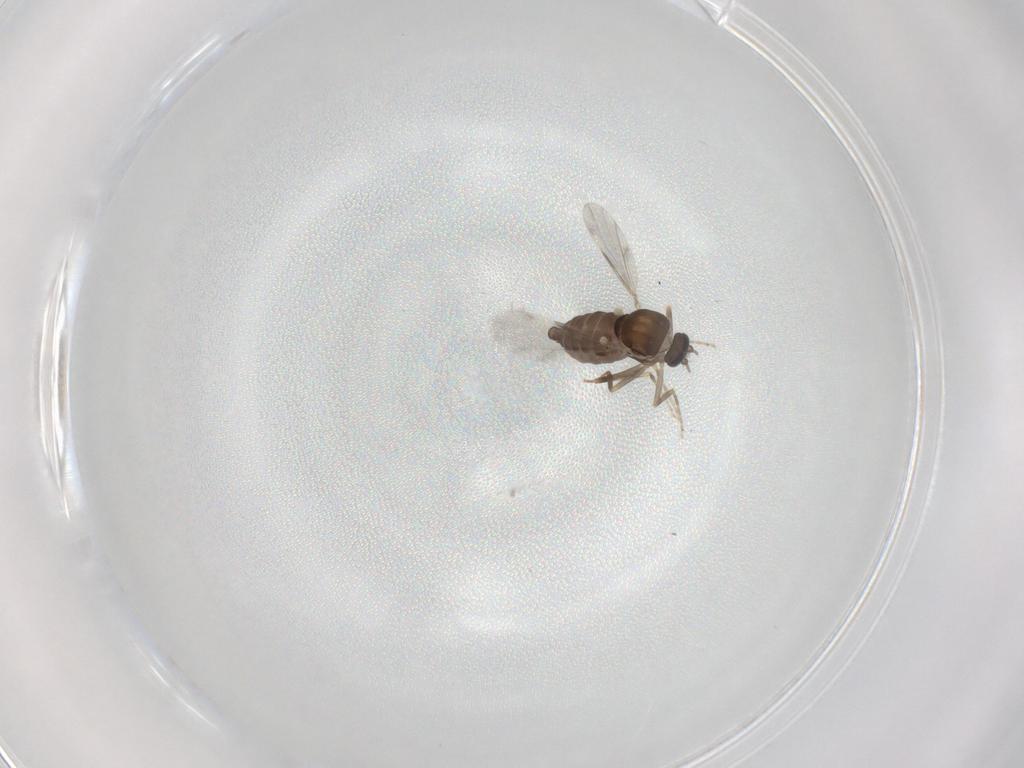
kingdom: Animalia
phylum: Arthropoda
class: Insecta
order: Diptera
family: Ceratopogonidae
